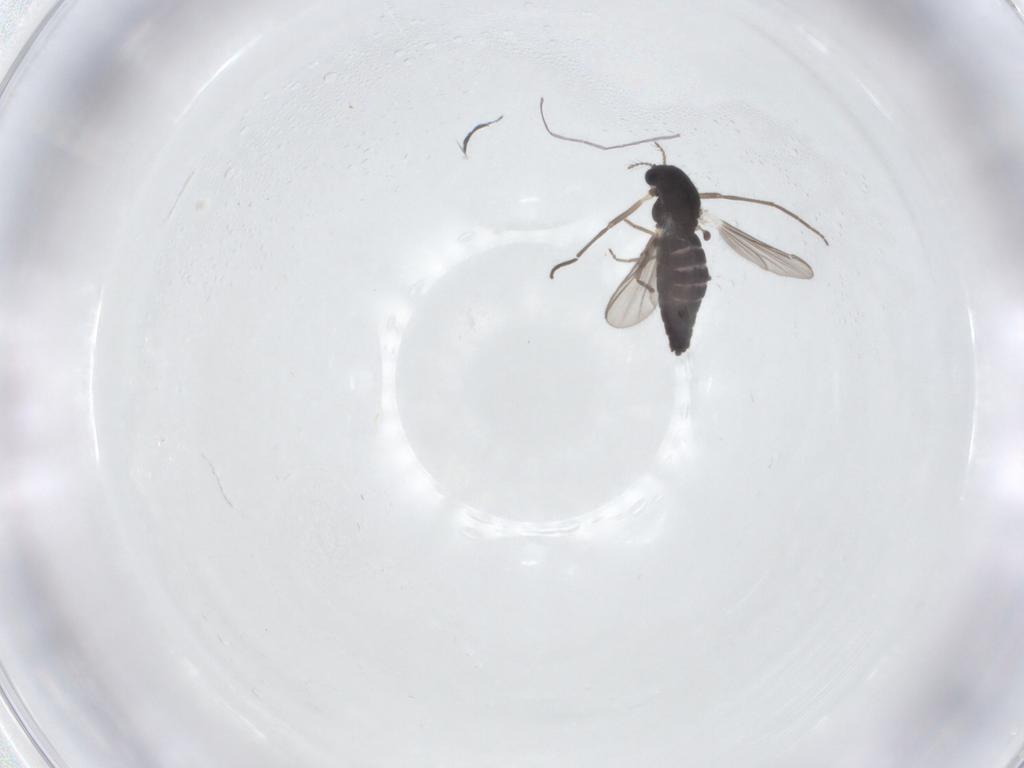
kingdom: Animalia
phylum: Arthropoda
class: Insecta
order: Diptera
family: Chironomidae
